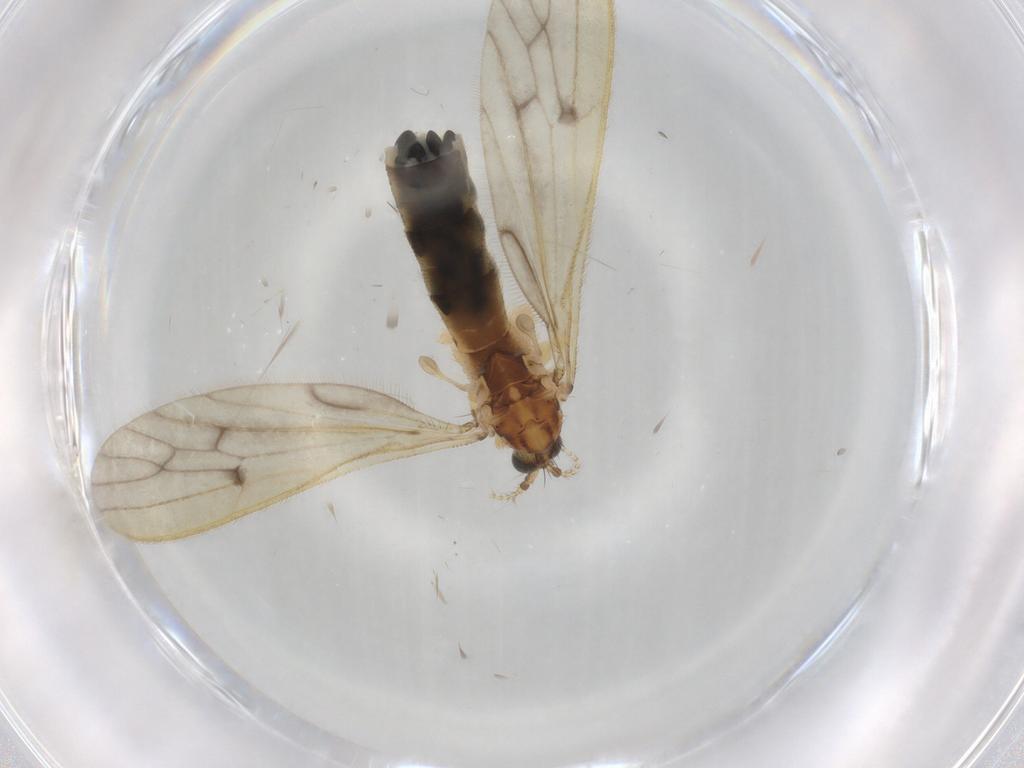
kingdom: Animalia
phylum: Arthropoda
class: Insecta
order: Diptera
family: Limoniidae
